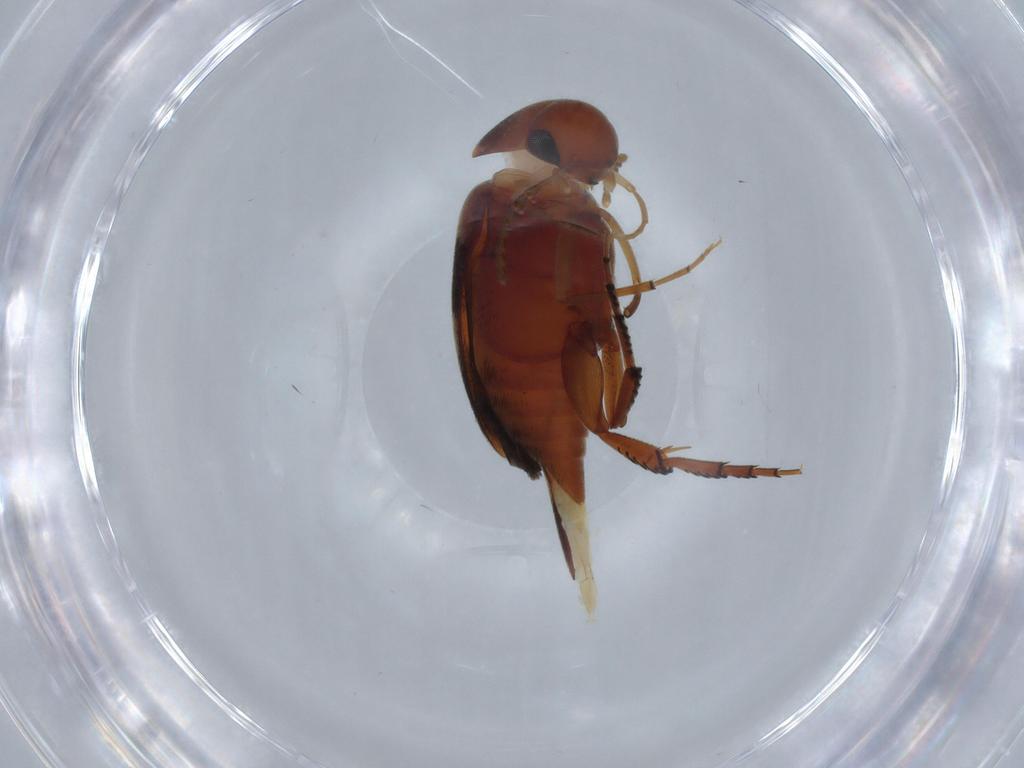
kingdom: Animalia
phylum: Arthropoda
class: Insecta
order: Coleoptera
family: Mordellidae
